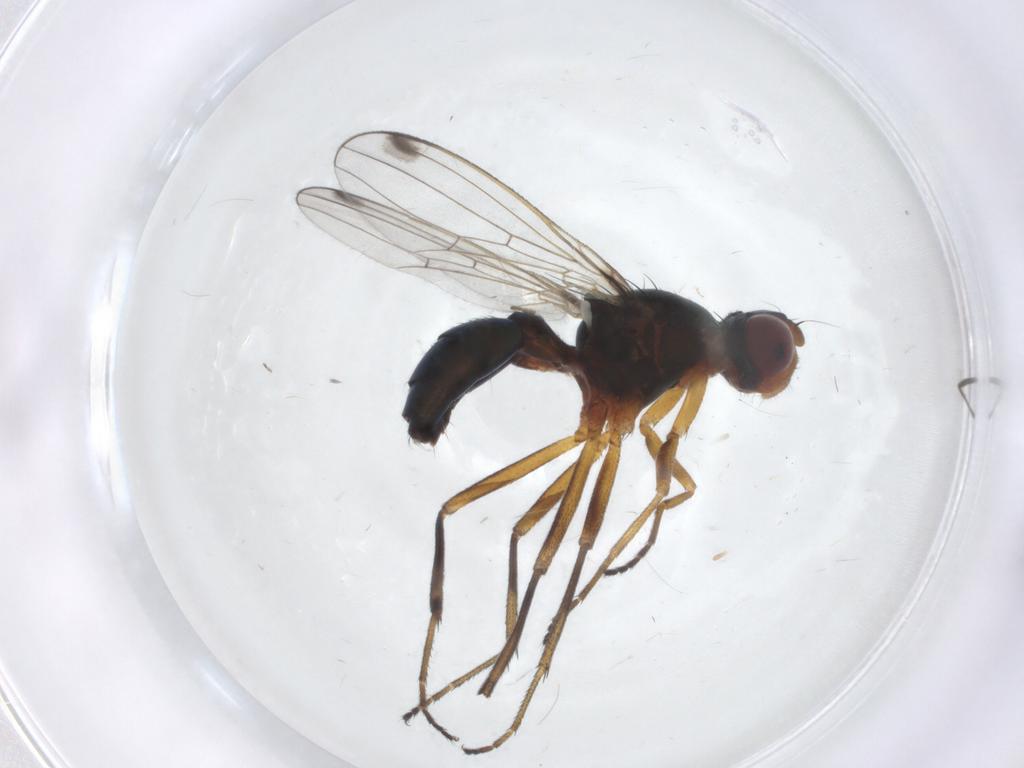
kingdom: Animalia
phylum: Arthropoda
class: Insecta
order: Diptera
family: Sepsidae
